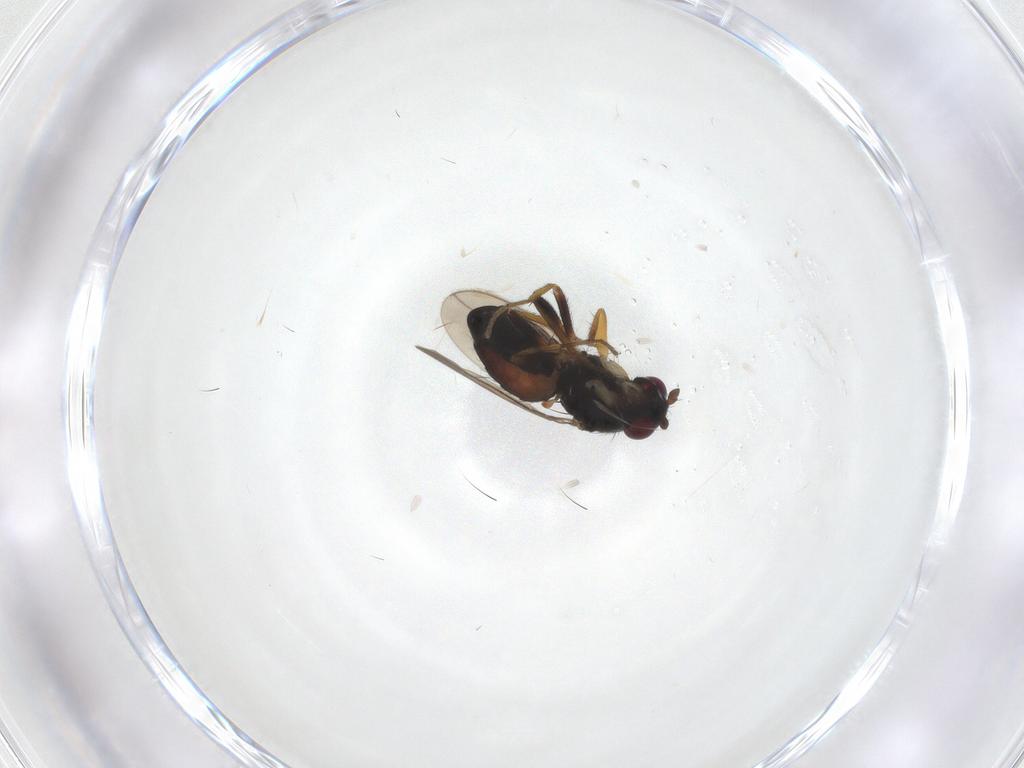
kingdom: Animalia
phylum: Arthropoda
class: Insecta
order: Diptera
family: Sphaeroceridae
